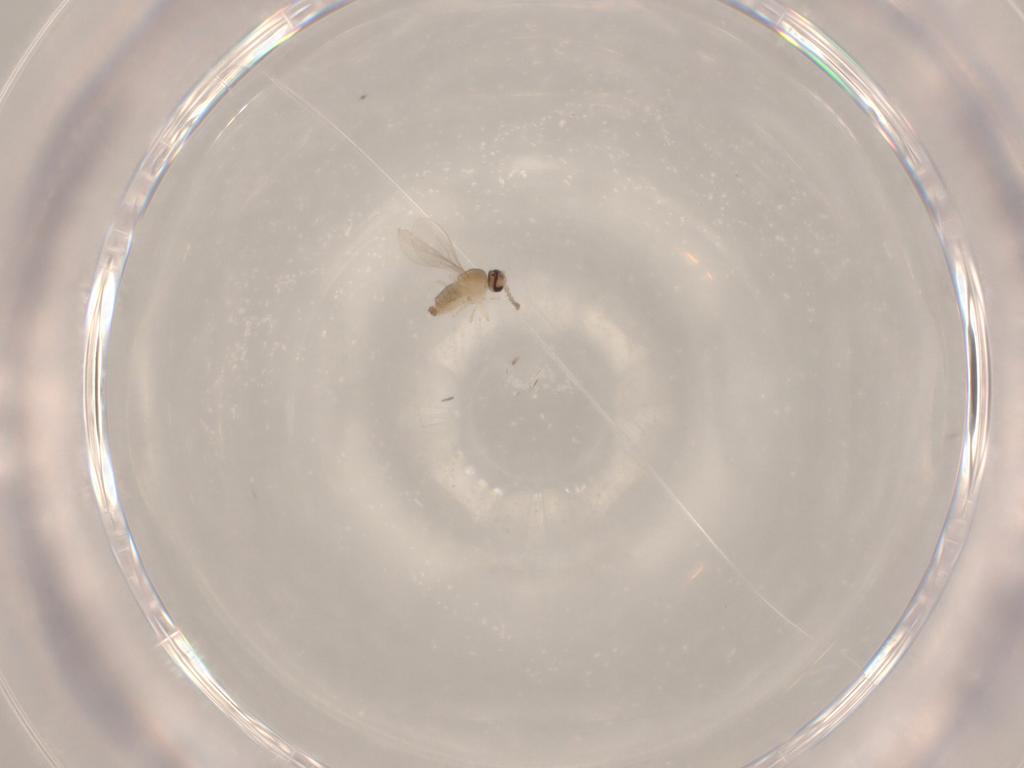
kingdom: Animalia
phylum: Arthropoda
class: Insecta
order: Diptera
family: Cecidomyiidae
